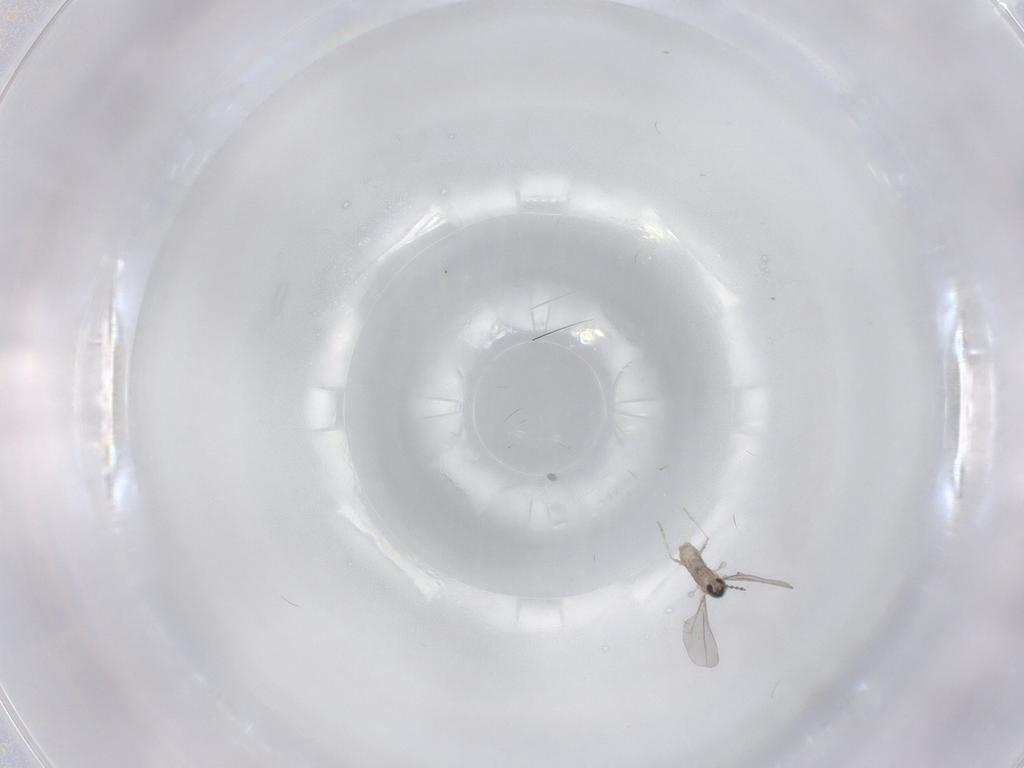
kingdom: Animalia
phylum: Arthropoda
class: Insecta
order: Diptera
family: Cecidomyiidae
